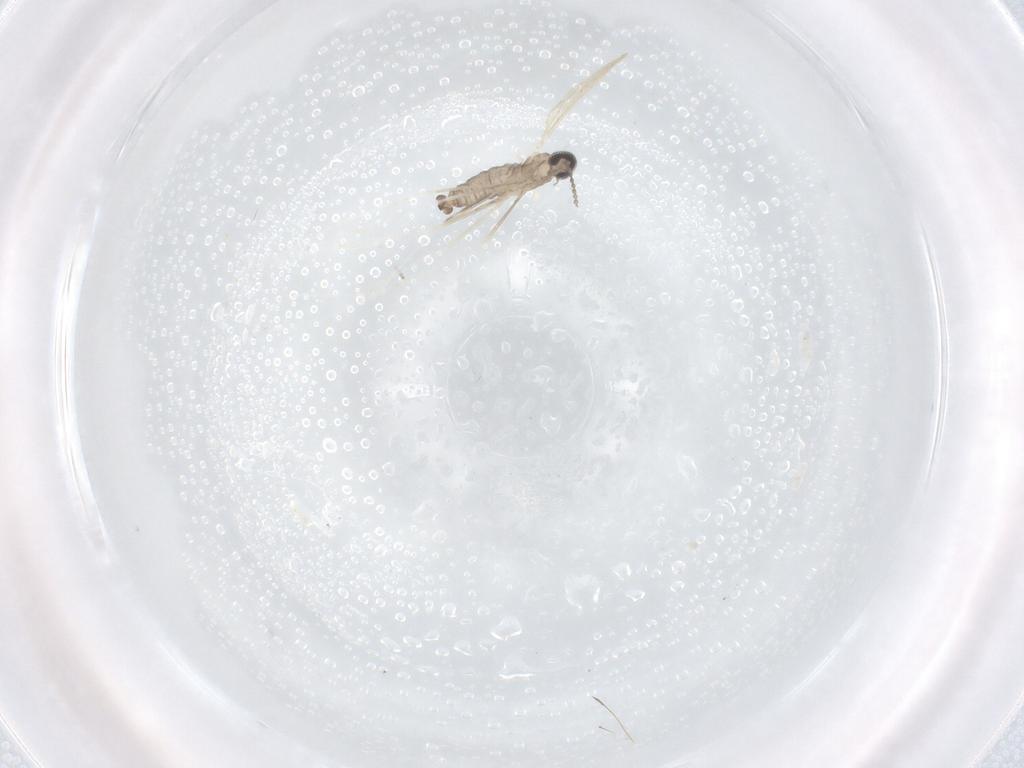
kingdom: Animalia
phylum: Arthropoda
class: Insecta
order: Diptera
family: Cecidomyiidae
